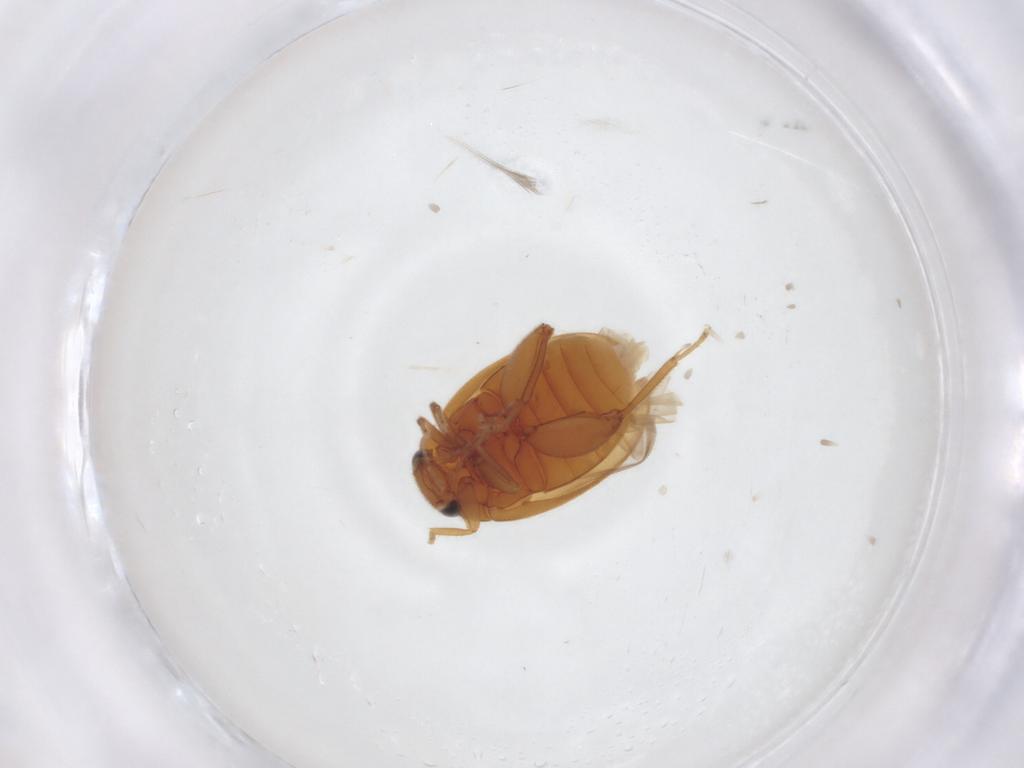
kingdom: Animalia
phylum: Arthropoda
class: Insecta
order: Coleoptera
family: Scirtidae
